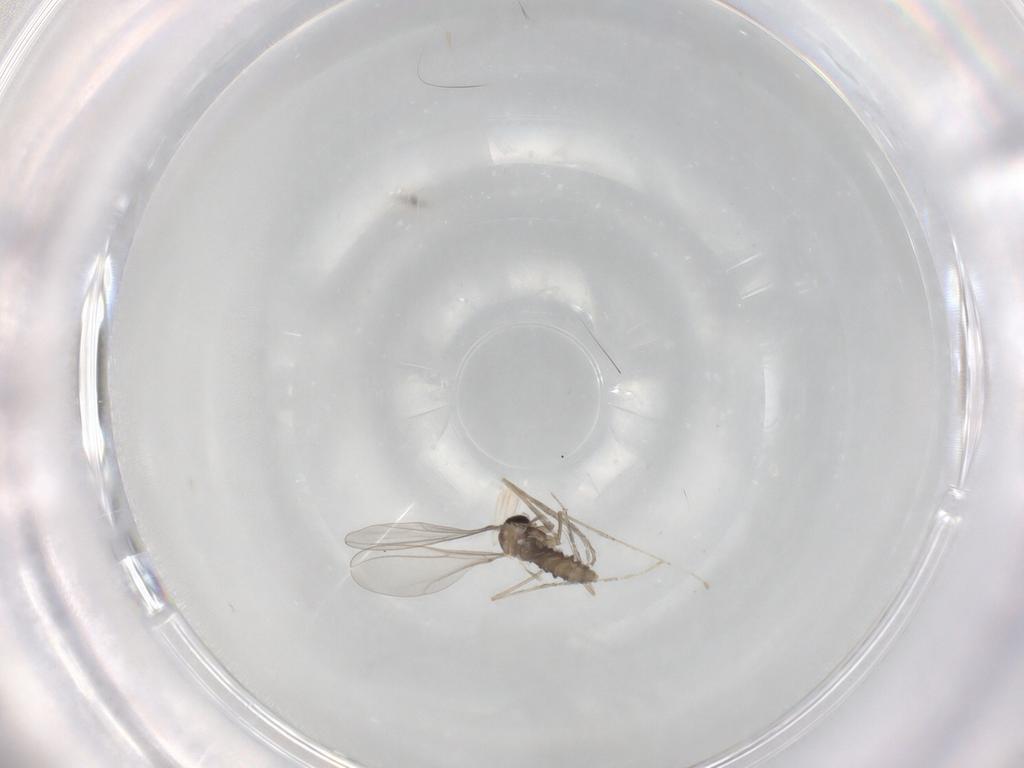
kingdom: Animalia
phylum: Arthropoda
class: Insecta
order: Diptera
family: Cecidomyiidae
